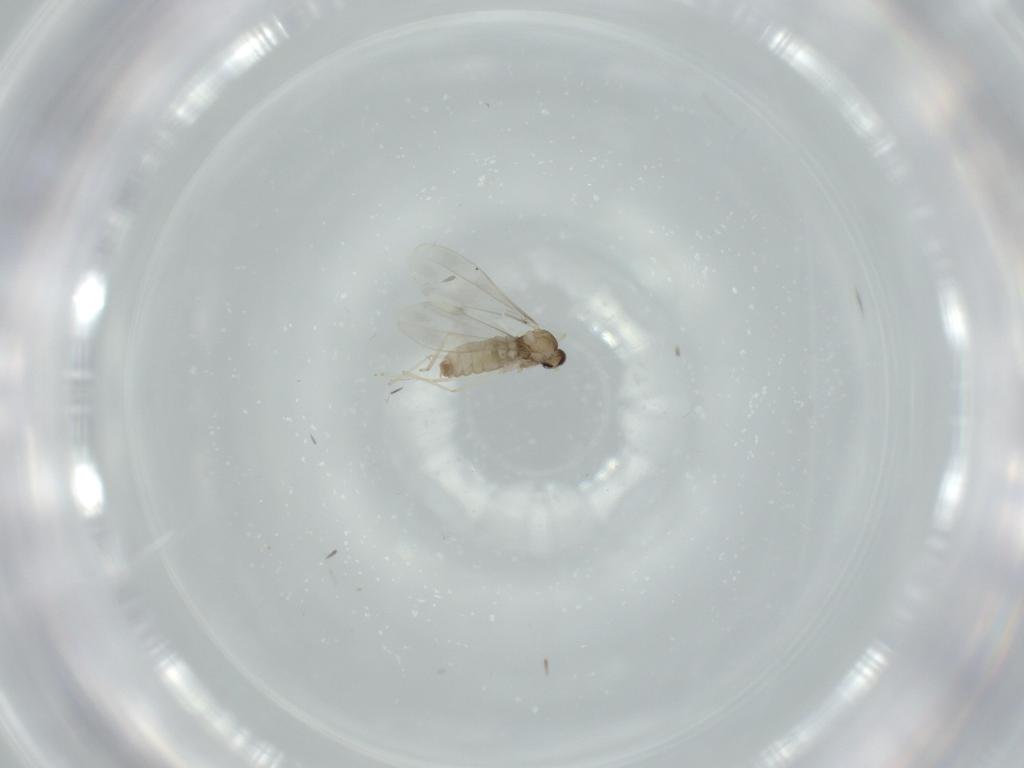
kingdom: Animalia
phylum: Arthropoda
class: Insecta
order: Diptera
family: Cecidomyiidae
